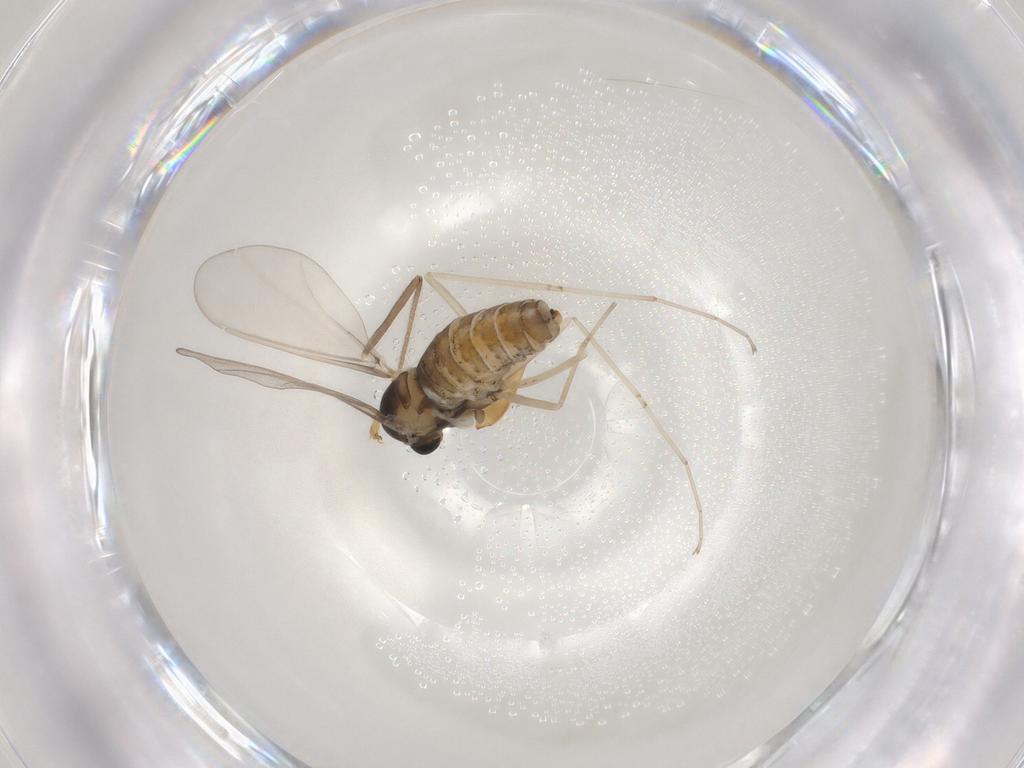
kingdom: Animalia
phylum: Arthropoda
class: Insecta
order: Diptera
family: Cecidomyiidae
